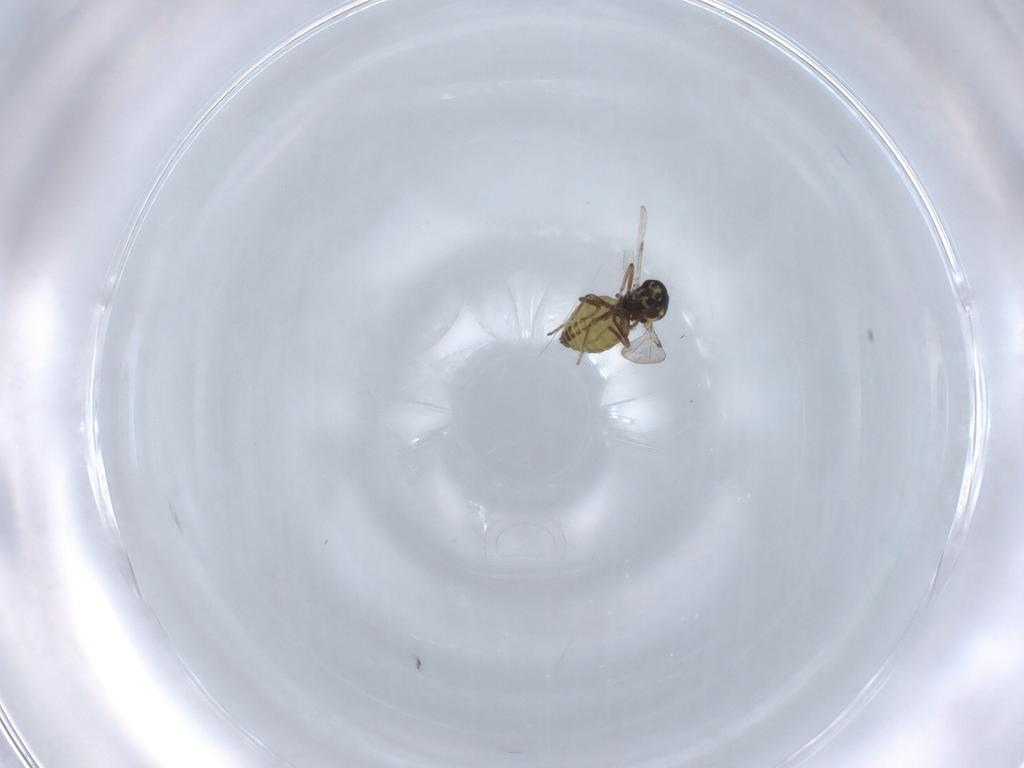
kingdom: Animalia
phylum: Arthropoda
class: Insecta
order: Diptera
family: Ceratopogonidae
